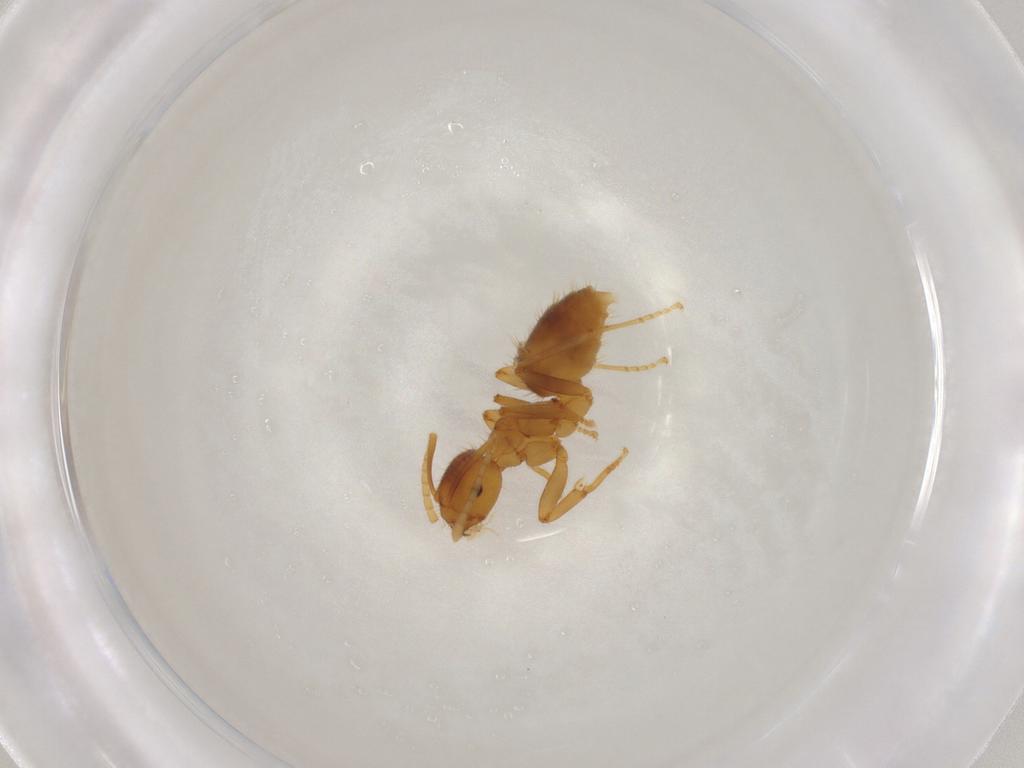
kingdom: Animalia
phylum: Arthropoda
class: Insecta
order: Hymenoptera
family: Formicidae
